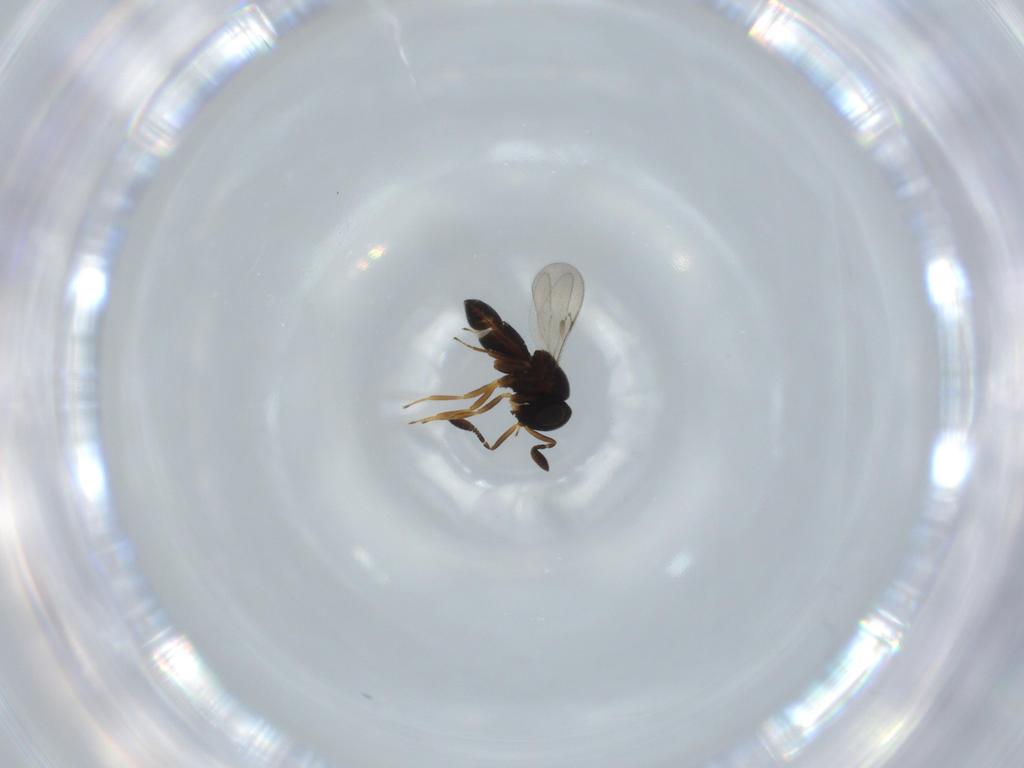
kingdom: Animalia
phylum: Arthropoda
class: Insecta
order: Hymenoptera
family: Scelionidae
